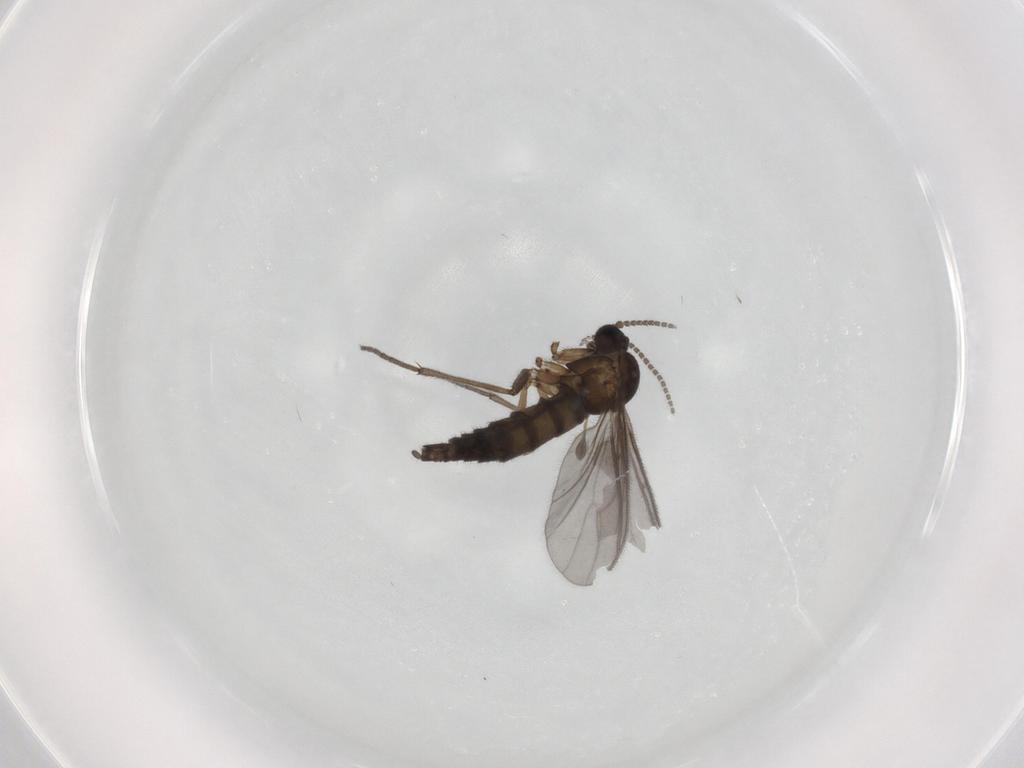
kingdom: Animalia
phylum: Arthropoda
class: Insecta
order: Diptera
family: Sciaridae
